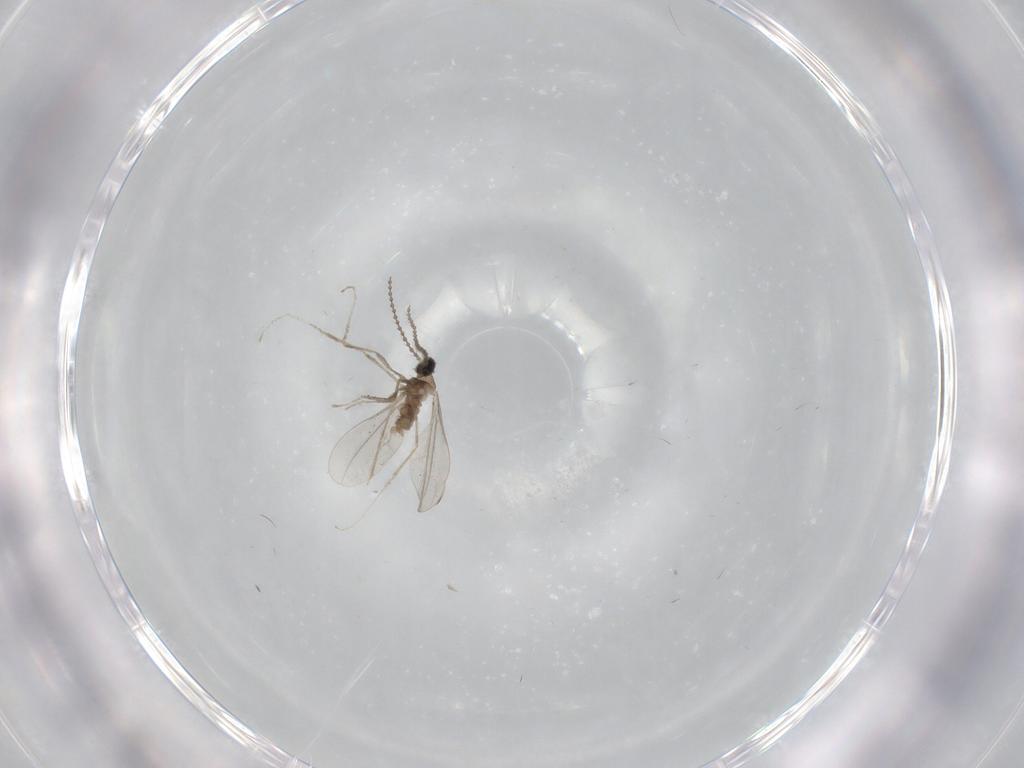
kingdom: Animalia
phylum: Arthropoda
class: Insecta
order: Diptera
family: Cecidomyiidae
